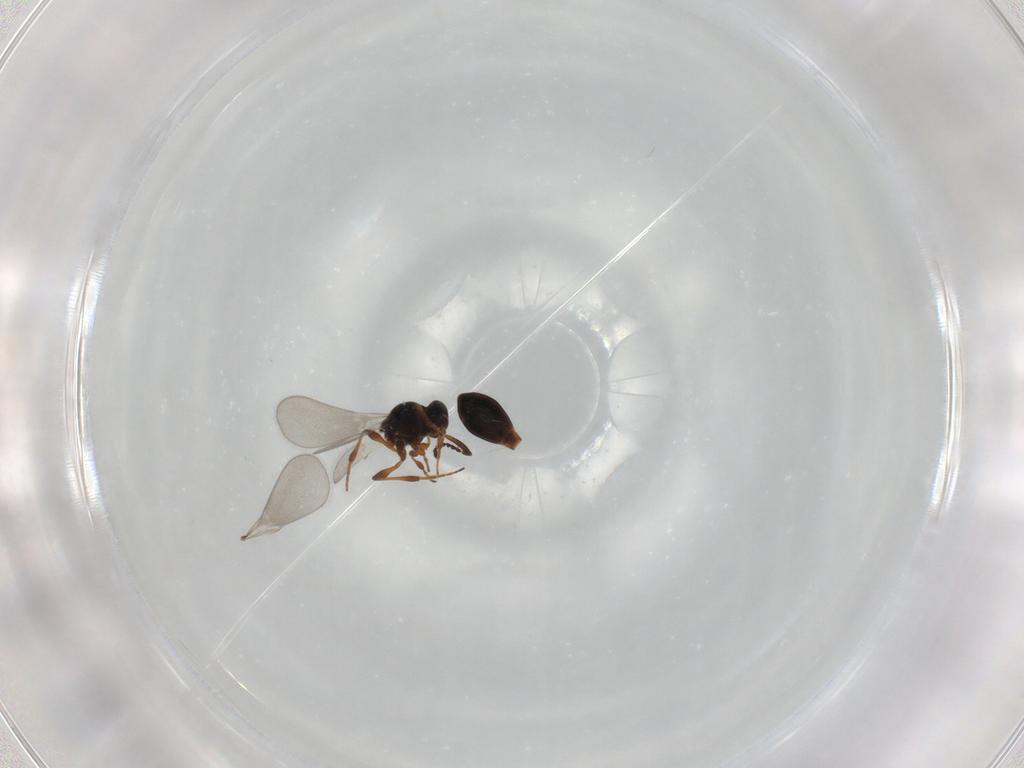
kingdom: Animalia
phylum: Arthropoda
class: Insecta
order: Hymenoptera
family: Platygastridae
